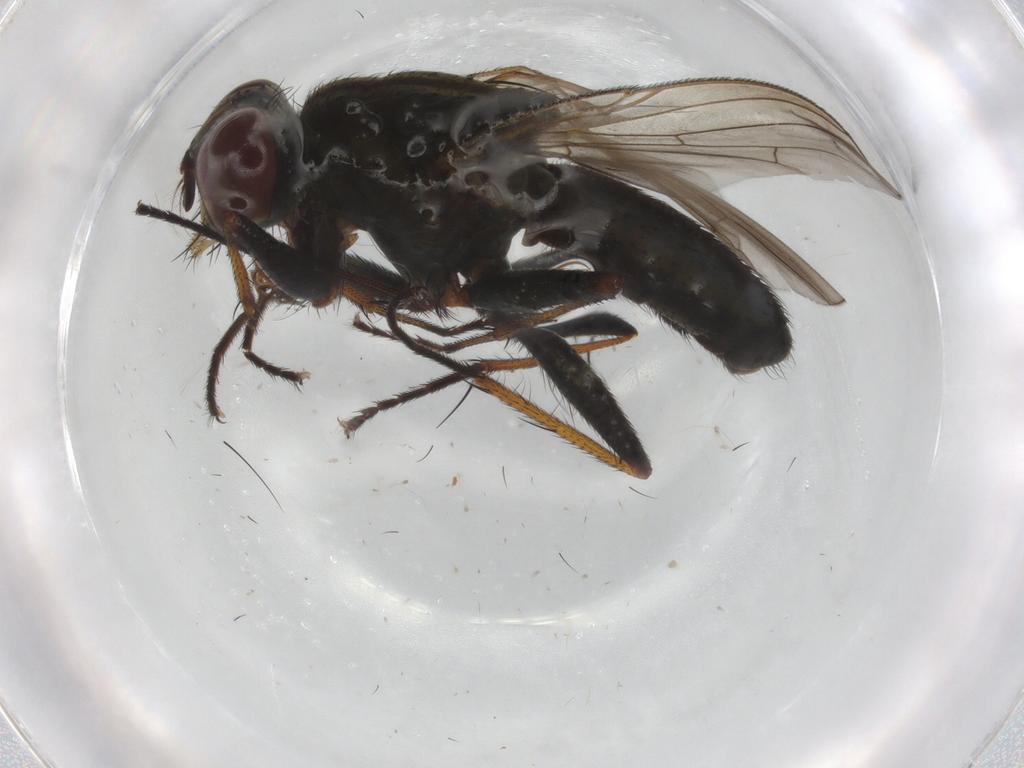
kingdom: Animalia
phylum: Arthropoda
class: Insecta
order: Diptera
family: Muscidae
